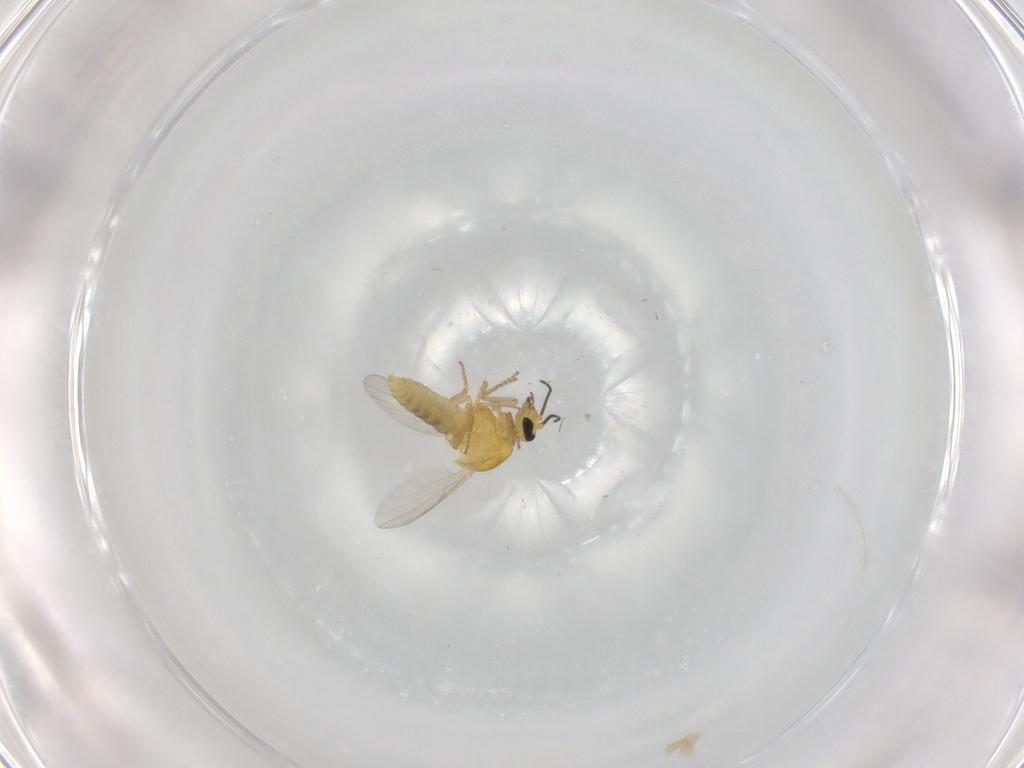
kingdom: Animalia
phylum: Arthropoda
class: Insecta
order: Diptera
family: Ceratopogonidae
